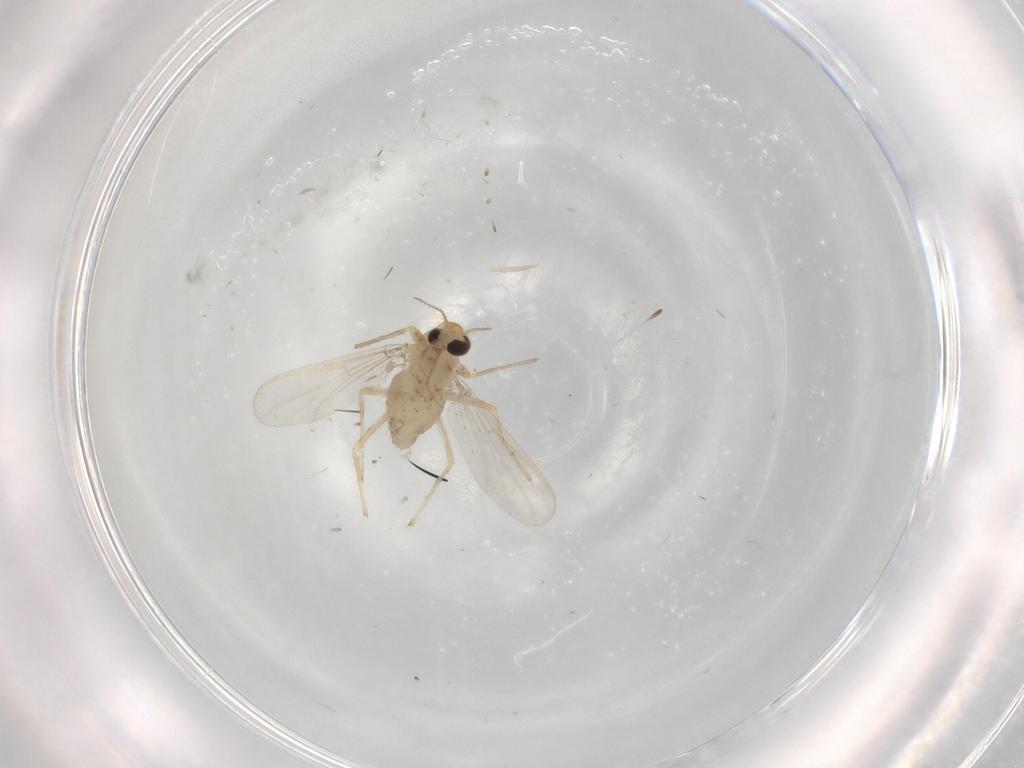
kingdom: Animalia
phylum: Arthropoda
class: Insecta
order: Diptera
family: Chironomidae
